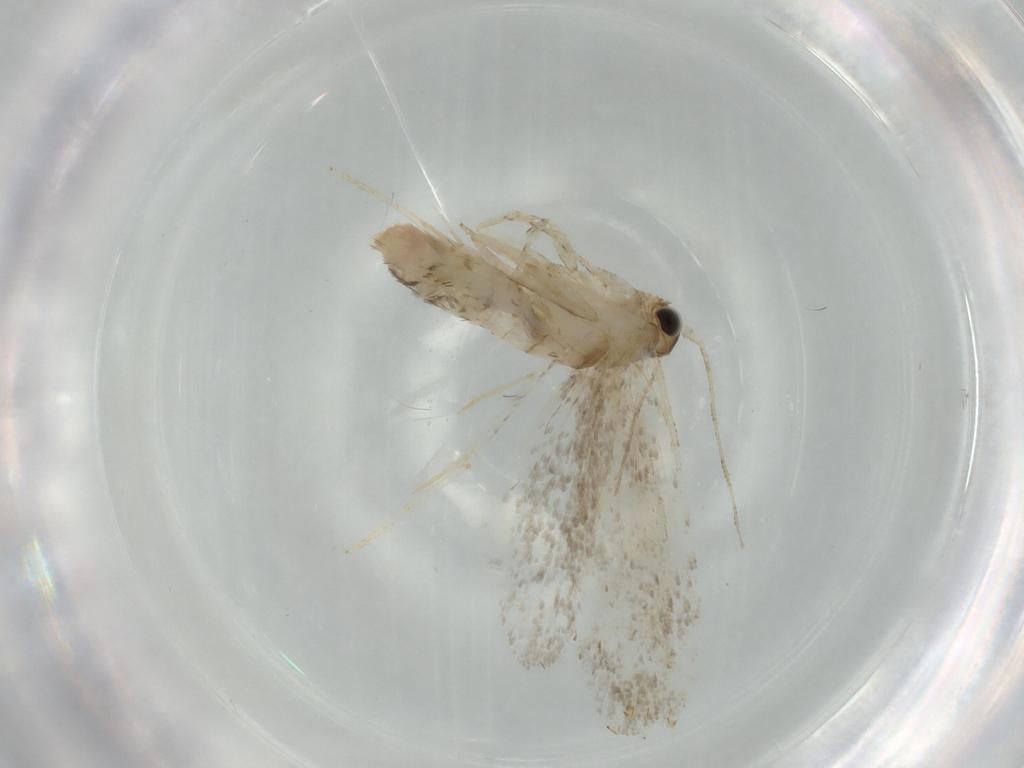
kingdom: Animalia
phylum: Arthropoda
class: Insecta
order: Lepidoptera
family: Tineidae
